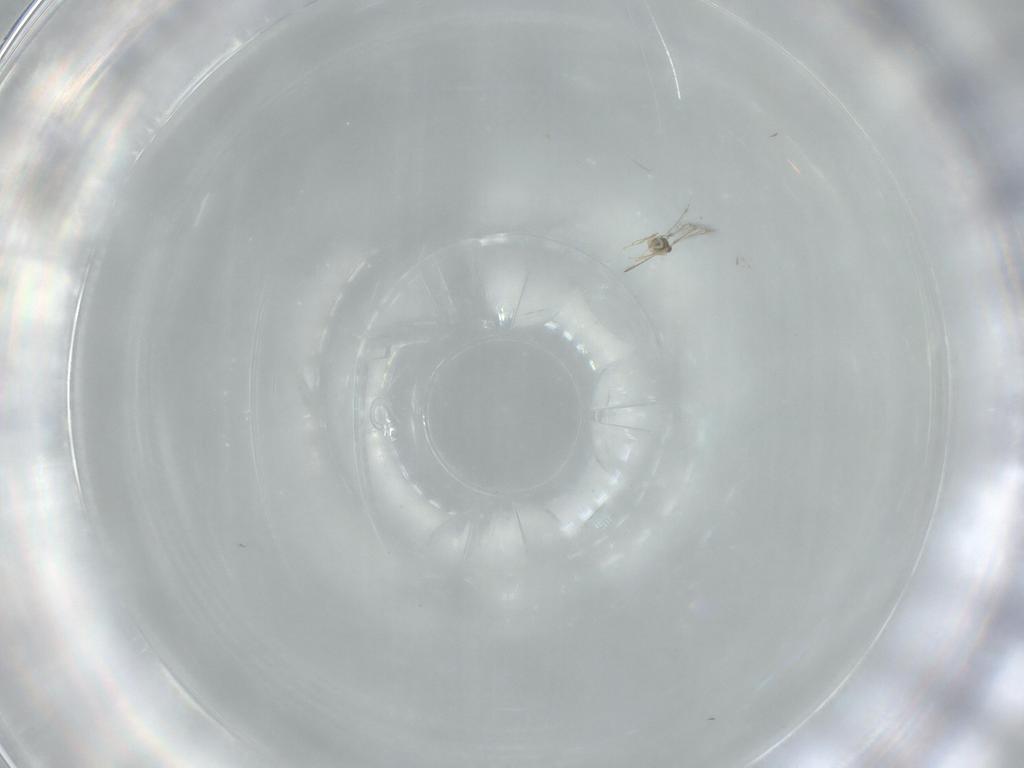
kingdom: Animalia
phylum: Arthropoda
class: Insecta
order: Hymenoptera
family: Mymaridae
